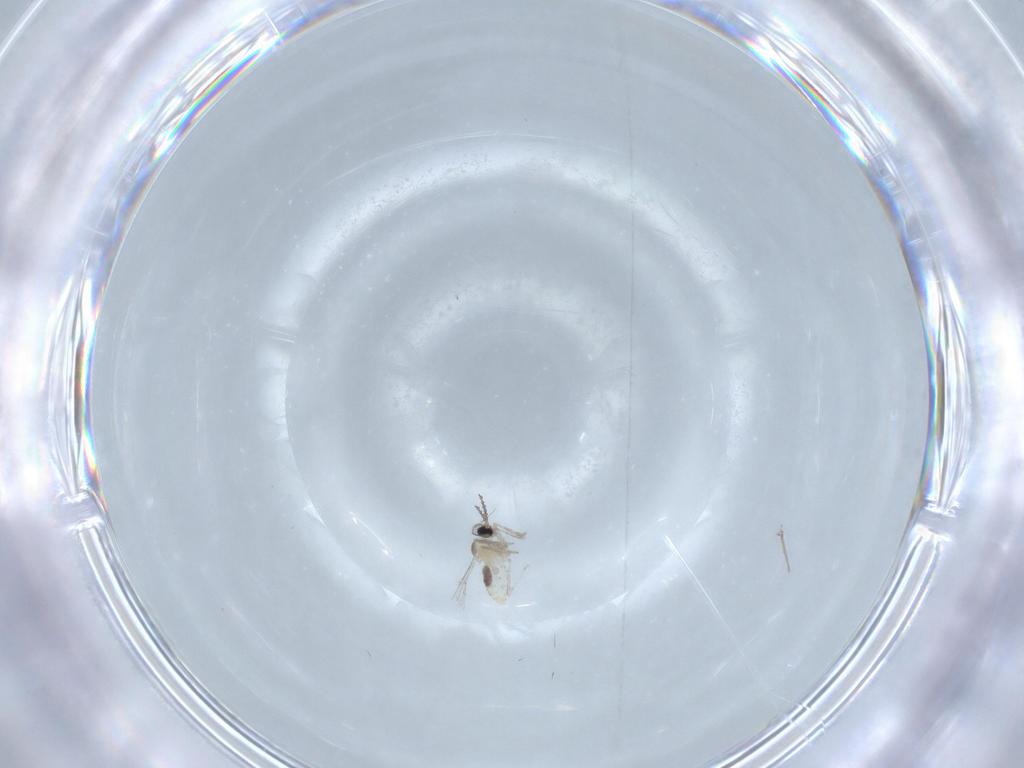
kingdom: Animalia
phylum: Arthropoda
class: Insecta
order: Diptera
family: Cecidomyiidae
